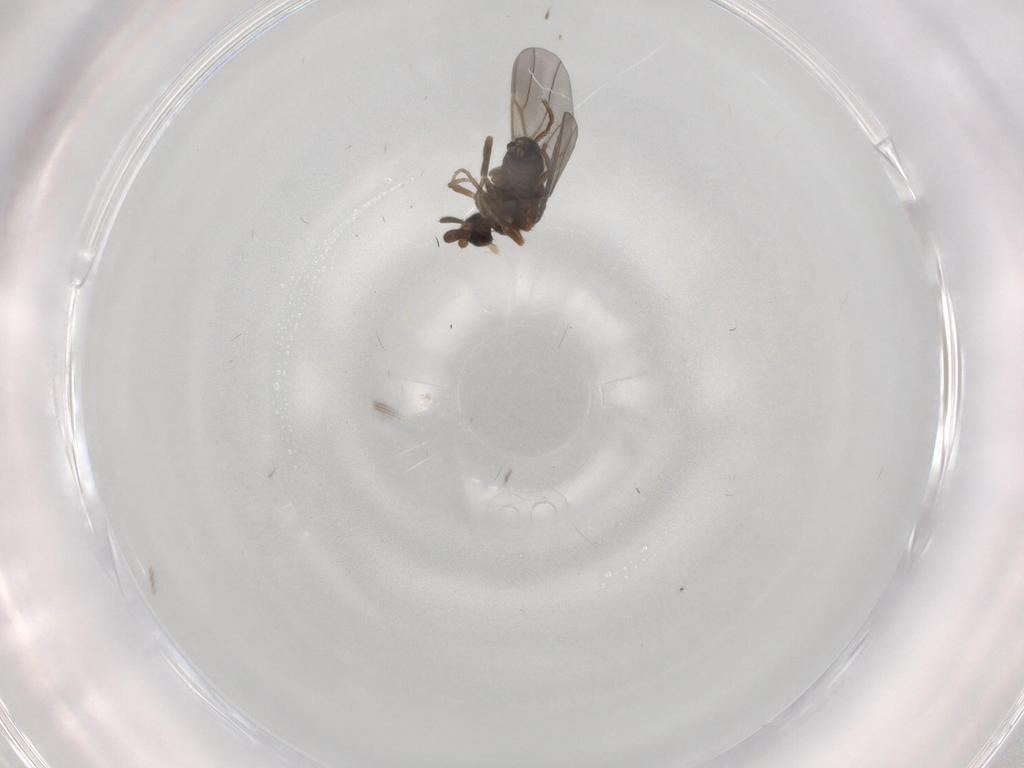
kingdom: Animalia
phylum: Arthropoda
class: Insecta
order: Diptera
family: Phoridae
